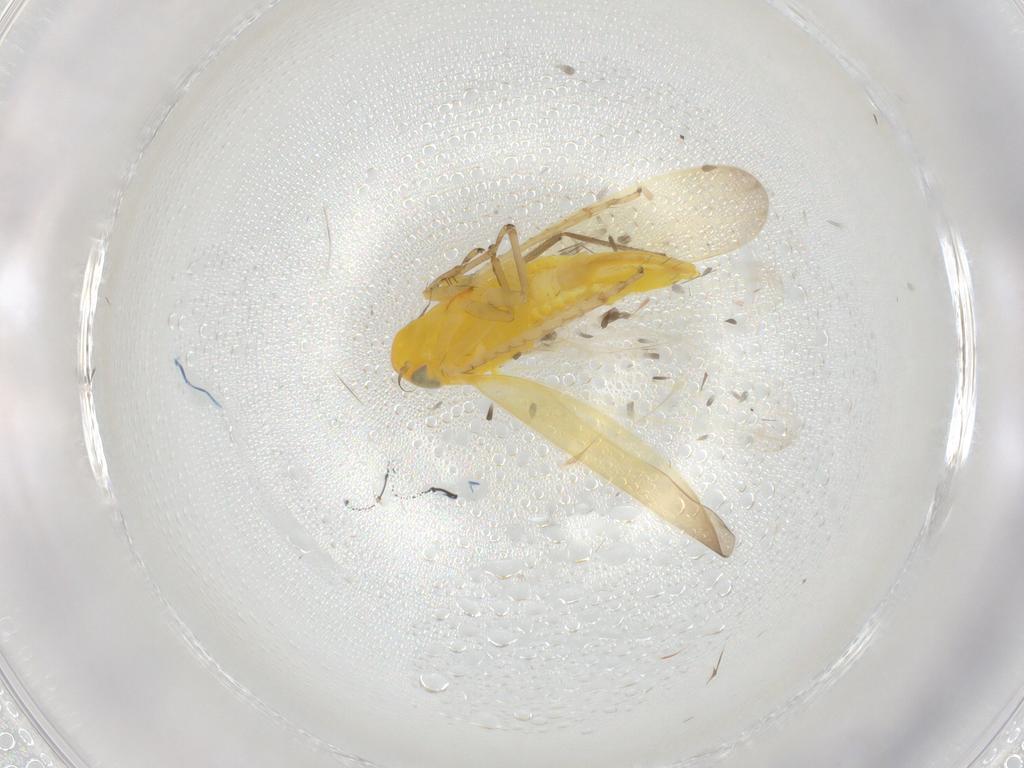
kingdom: Animalia
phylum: Arthropoda
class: Insecta
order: Hemiptera
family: Cicadellidae
